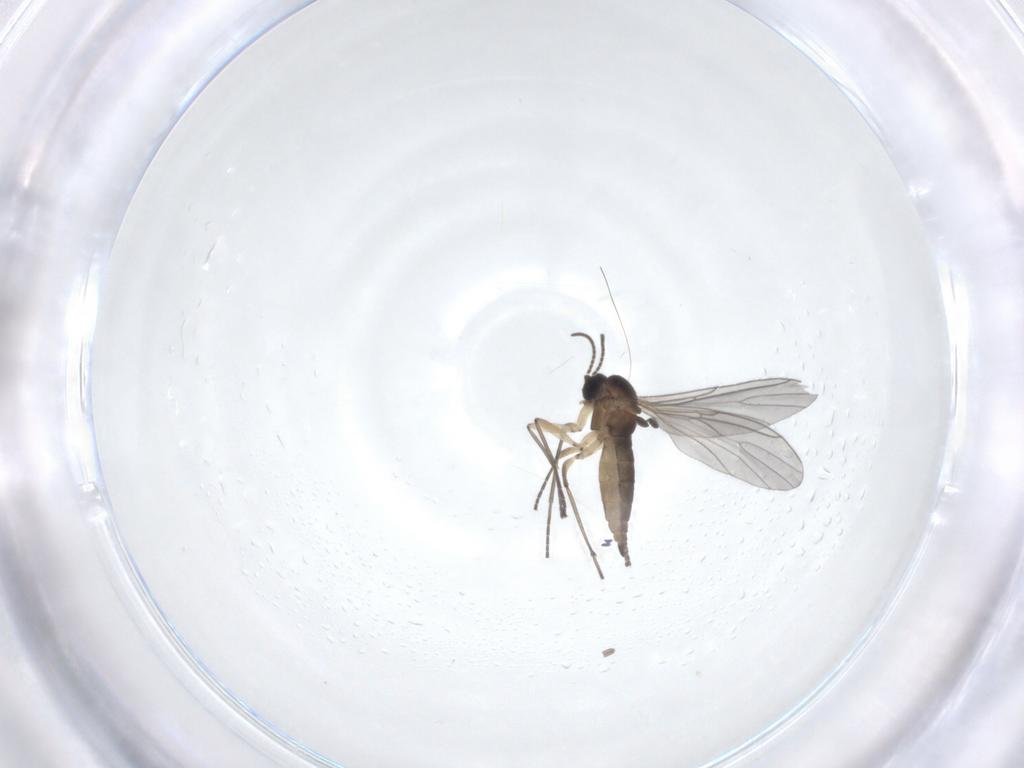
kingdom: Animalia
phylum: Arthropoda
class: Insecta
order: Diptera
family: Sciaridae
